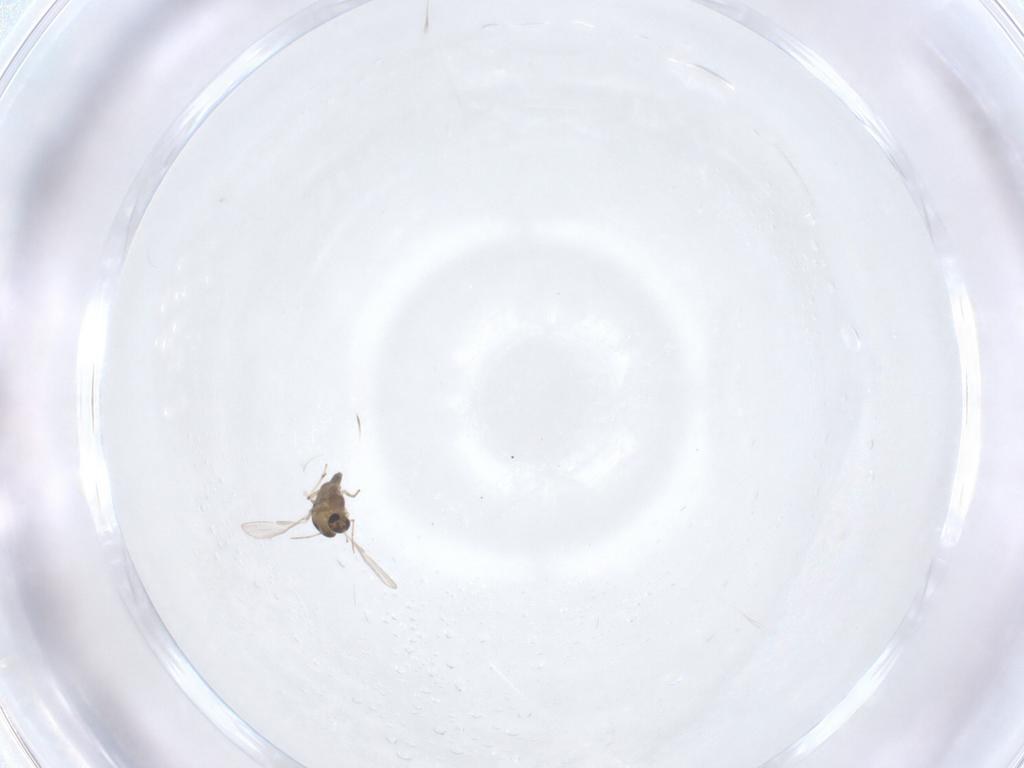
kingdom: Animalia
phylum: Arthropoda
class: Insecta
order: Diptera
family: Chironomidae
